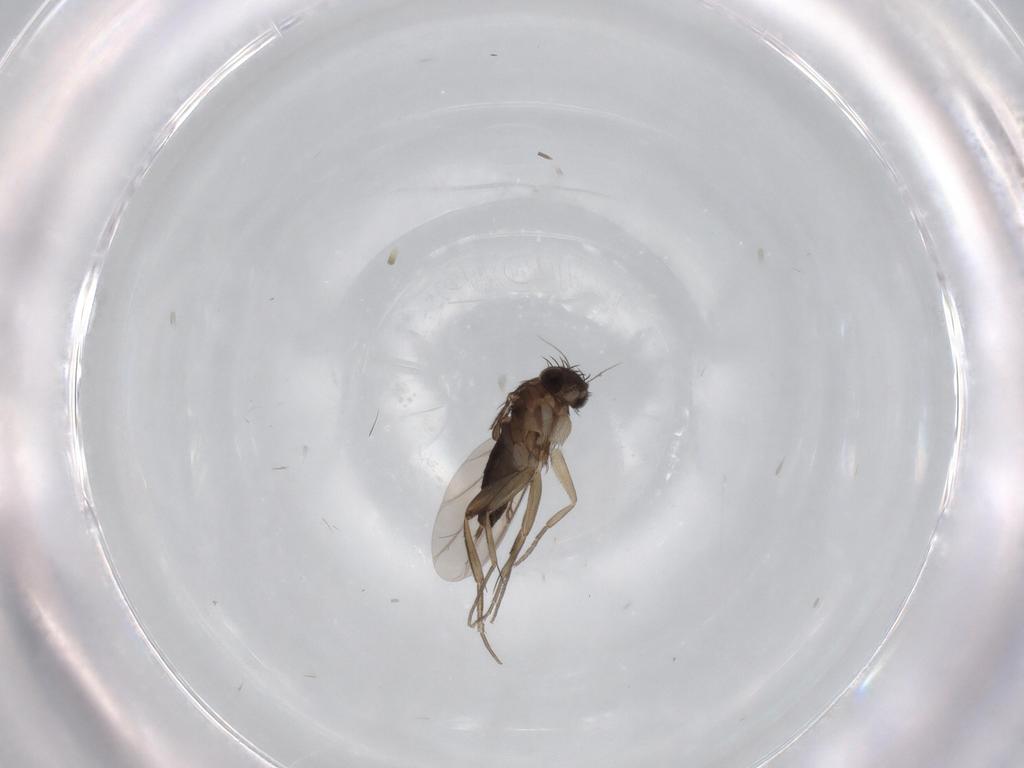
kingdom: Animalia
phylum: Arthropoda
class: Insecta
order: Diptera
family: Phoridae
